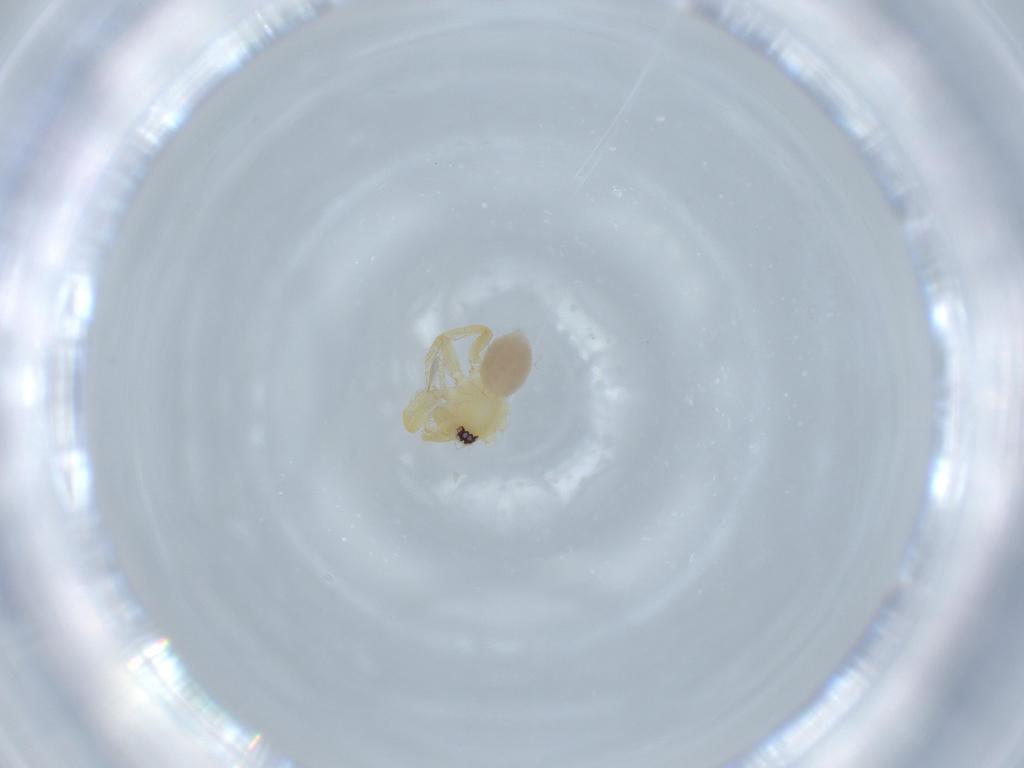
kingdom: Animalia
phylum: Arthropoda
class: Arachnida
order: Araneae
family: Oonopidae
